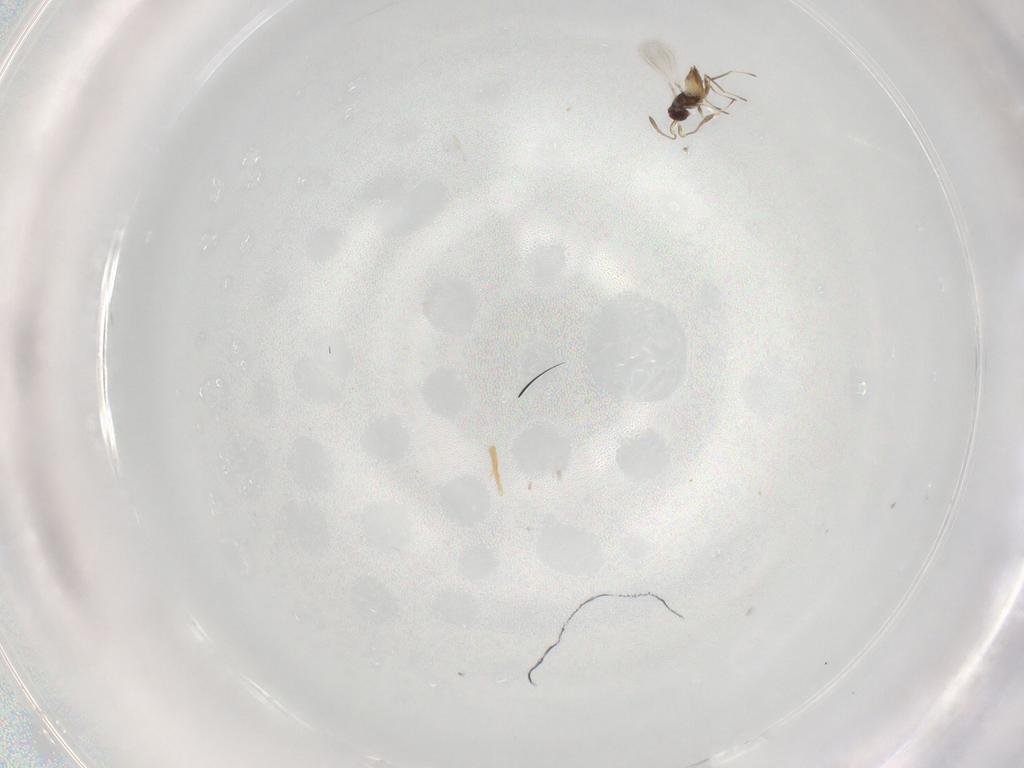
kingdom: Animalia
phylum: Arthropoda
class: Insecta
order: Hymenoptera
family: Mymaridae
